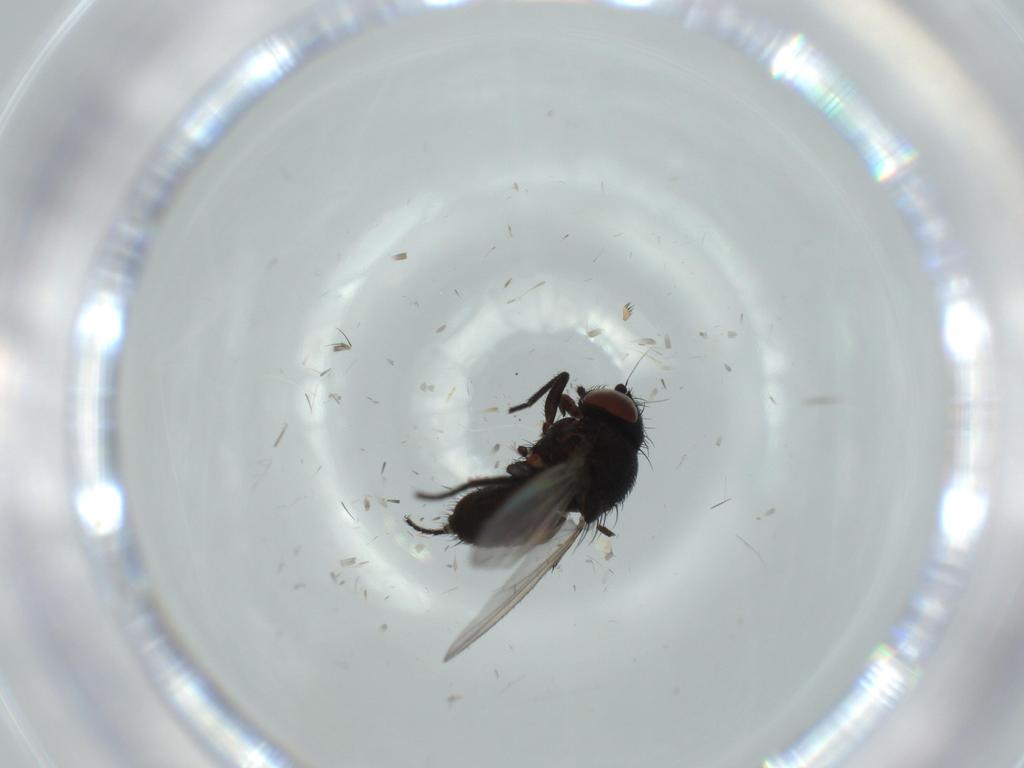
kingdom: Animalia
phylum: Arthropoda
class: Insecta
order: Diptera
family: Milichiidae
